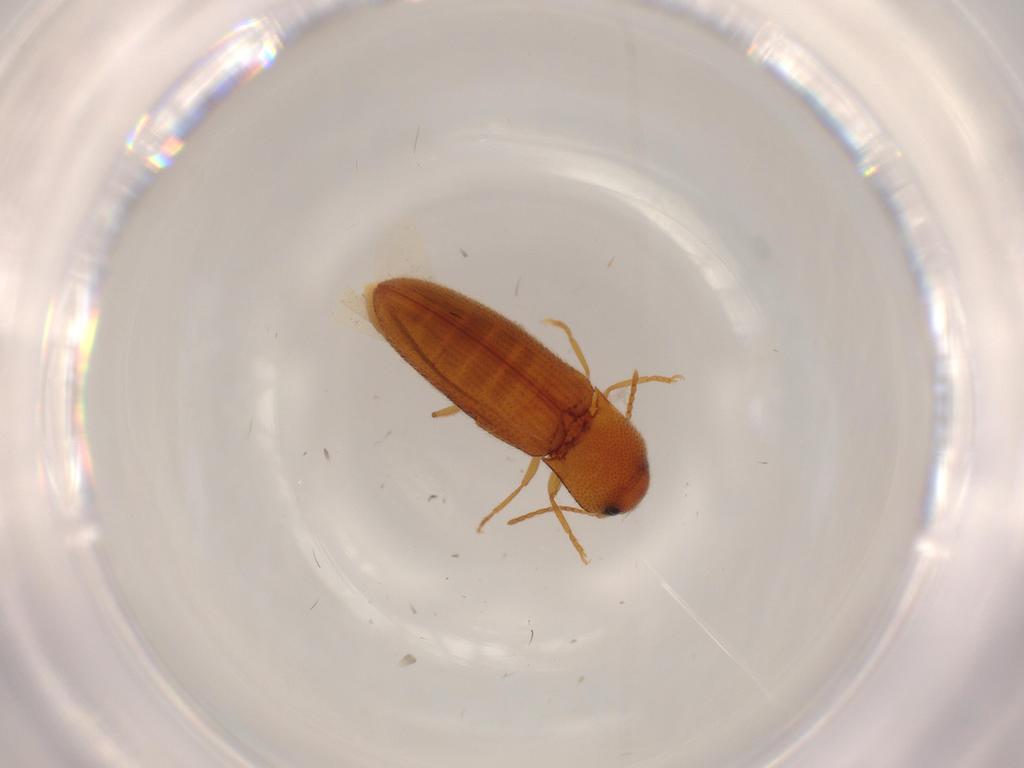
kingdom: Animalia
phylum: Arthropoda
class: Insecta
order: Coleoptera
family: Elateridae
